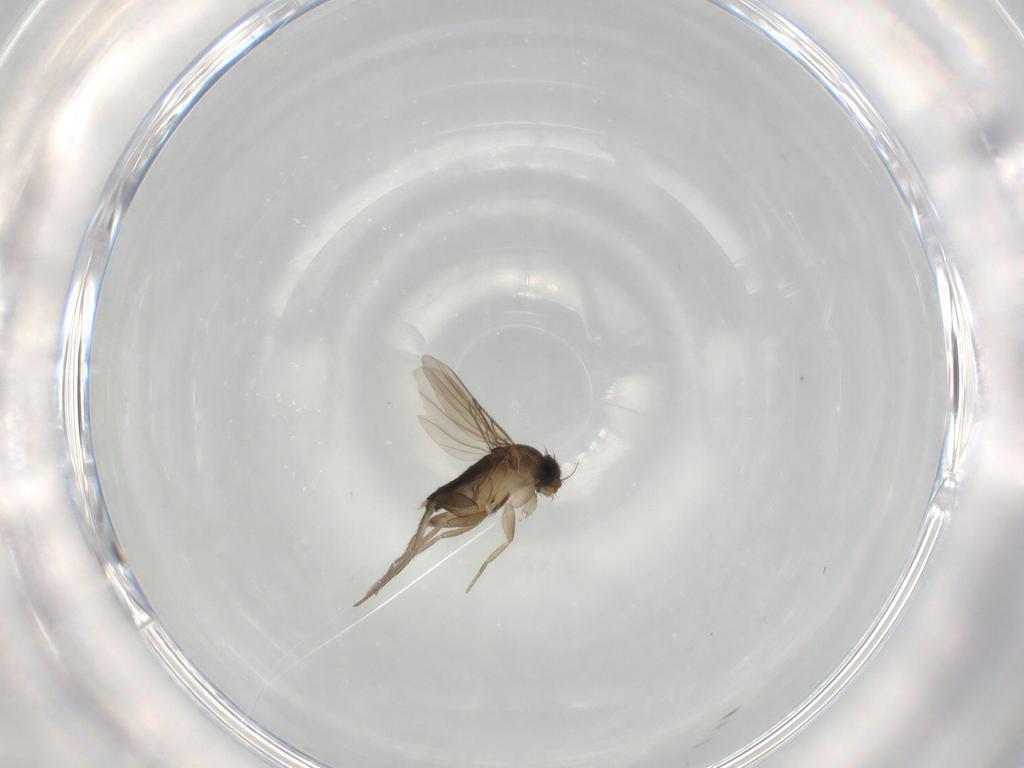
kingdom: Animalia
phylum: Arthropoda
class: Insecta
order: Diptera
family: Phoridae
